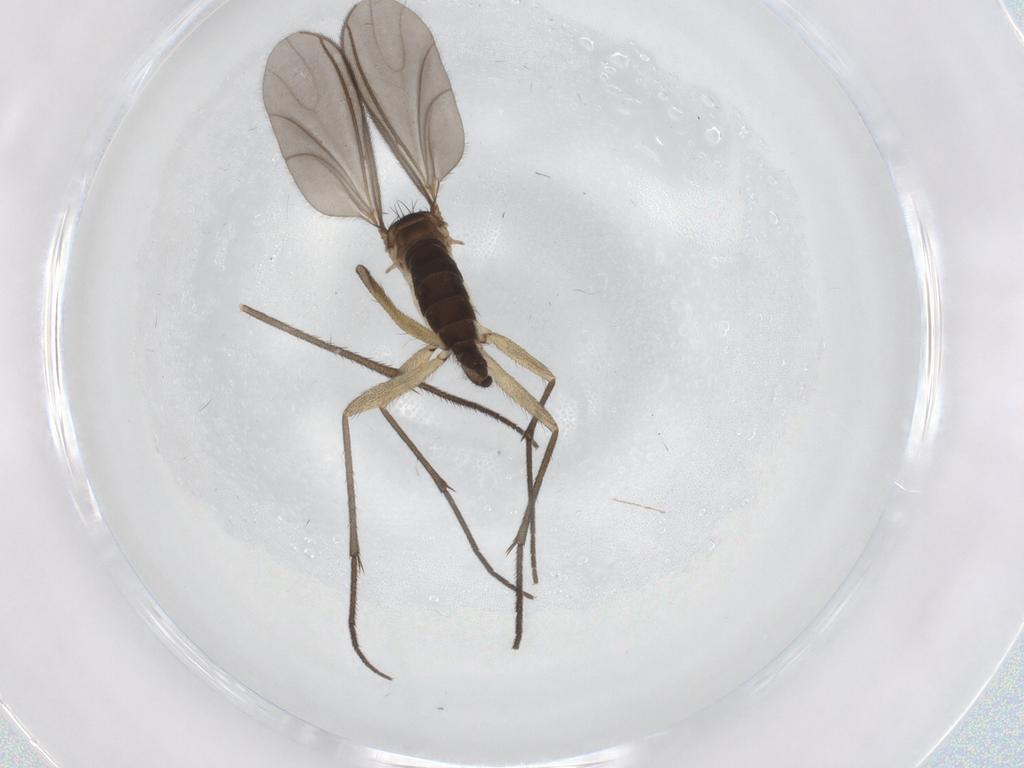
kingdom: Animalia
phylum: Arthropoda
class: Insecta
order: Diptera
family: Sciaridae
